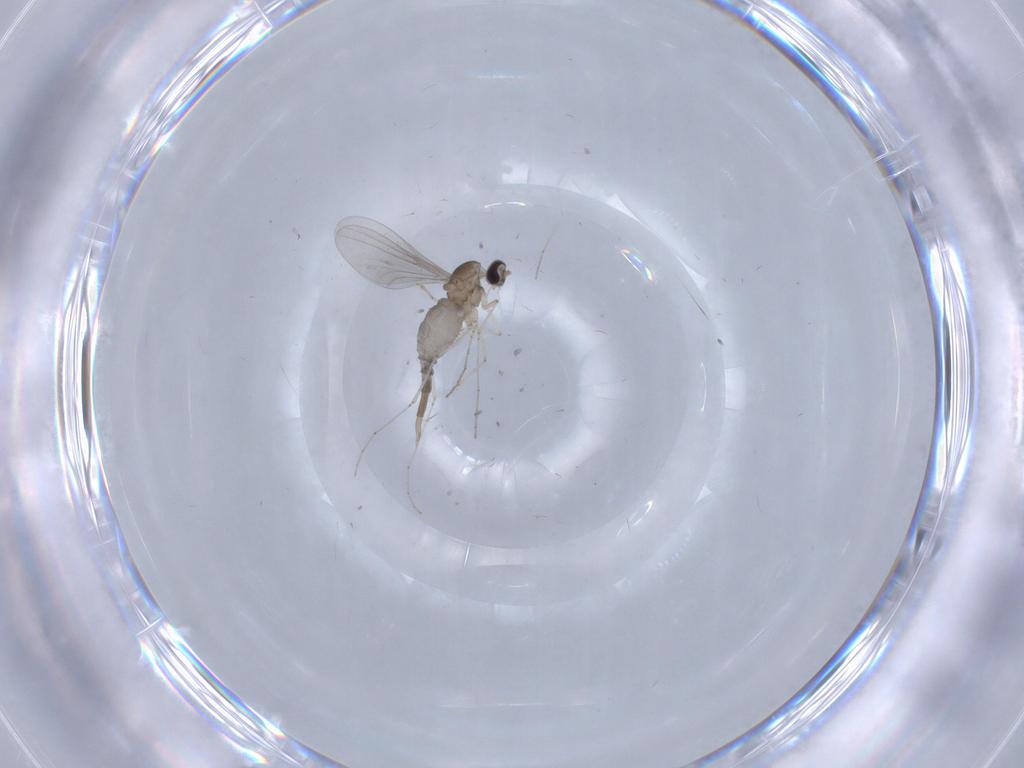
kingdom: Animalia
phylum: Arthropoda
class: Insecta
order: Diptera
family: Cecidomyiidae
